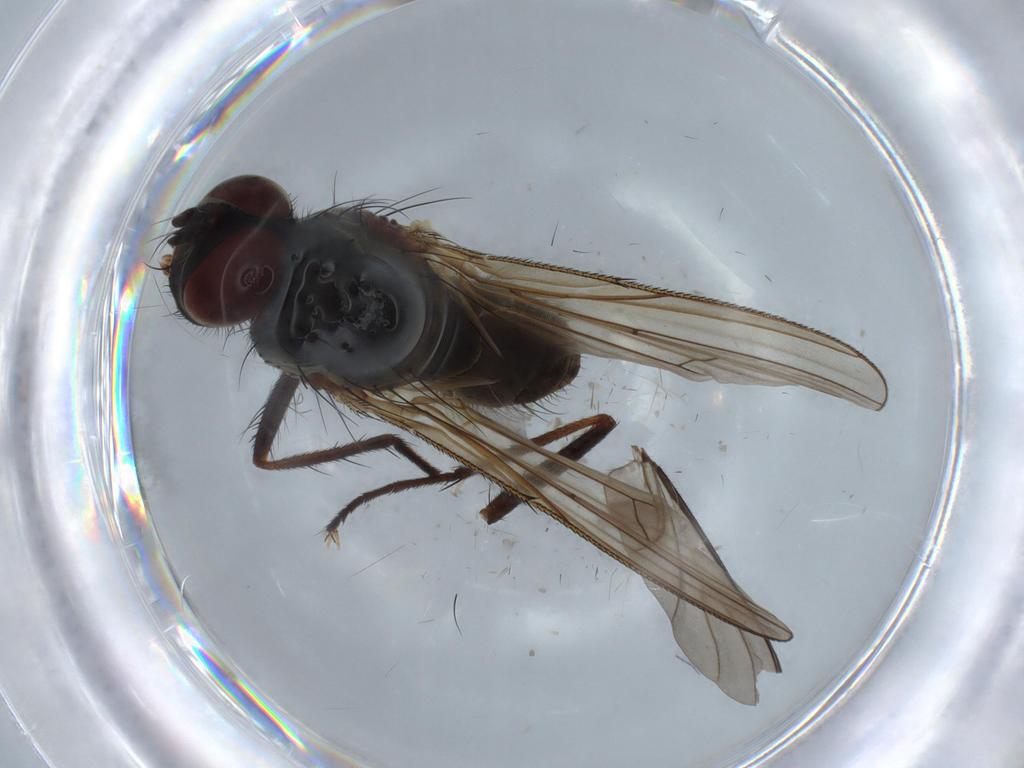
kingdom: Animalia
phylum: Arthropoda
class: Insecta
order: Diptera
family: Anthomyiidae
